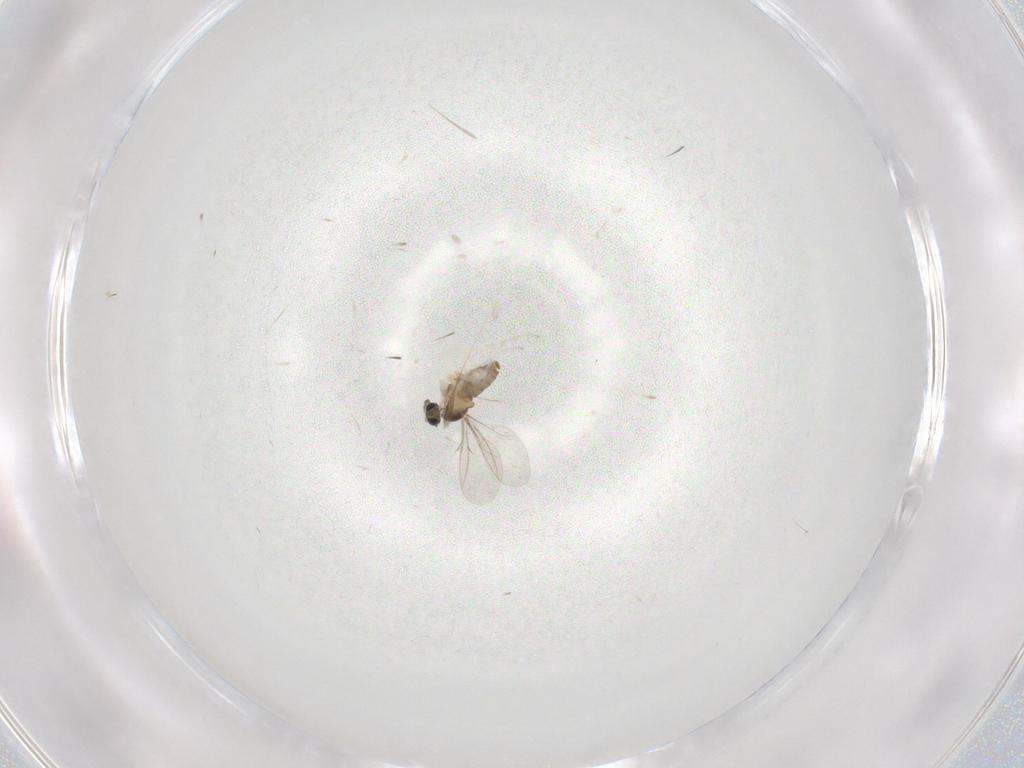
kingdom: Animalia
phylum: Arthropoda
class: Insecta
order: Diptera
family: Cecidomyiidae
